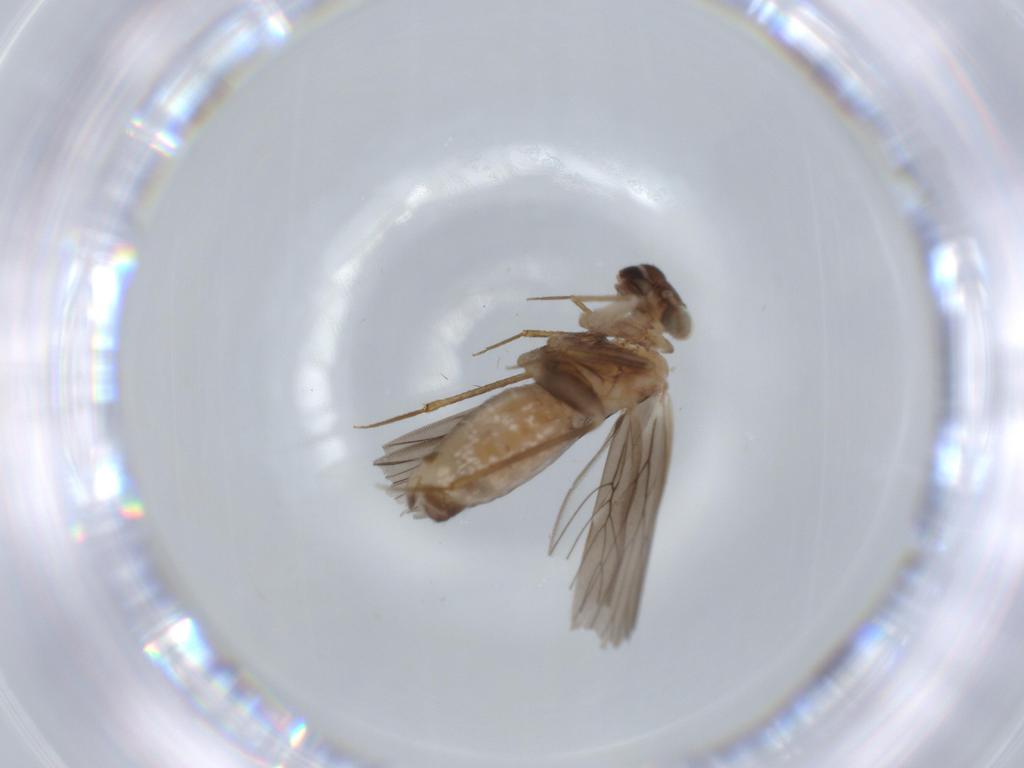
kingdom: Animalia
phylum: Arthropoda
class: Insecta
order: Psocodea
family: Lepidopsocidae
